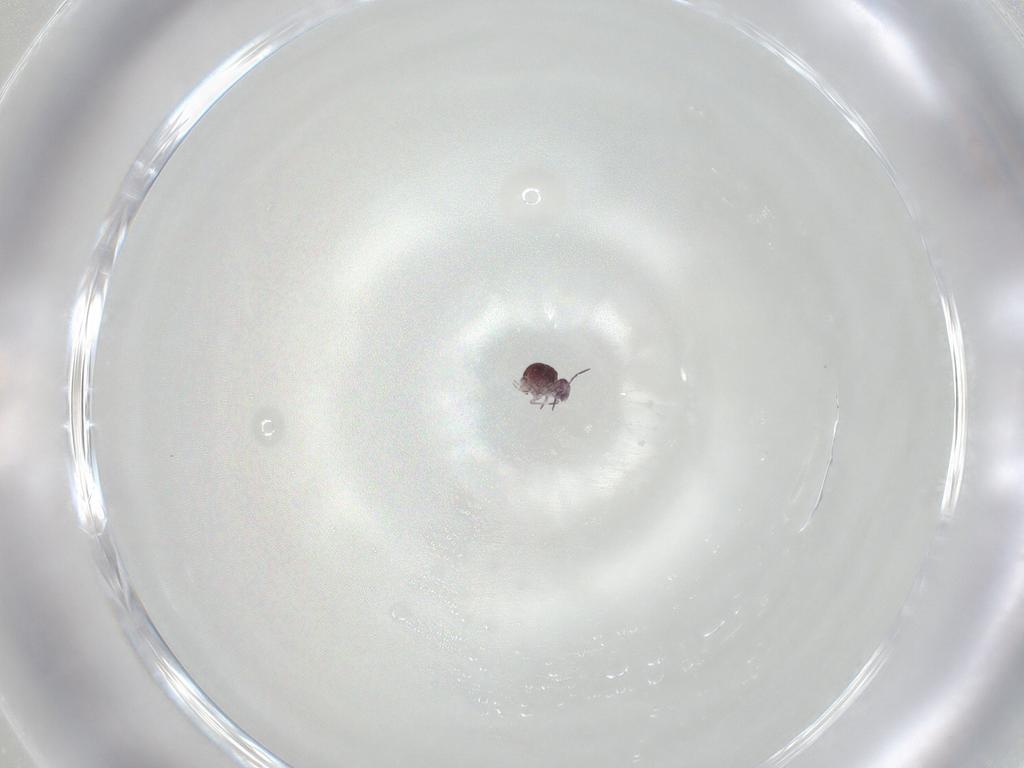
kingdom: Animalia
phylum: Arthropoda
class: Collembola
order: Symphypleona
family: Sminthurididae
